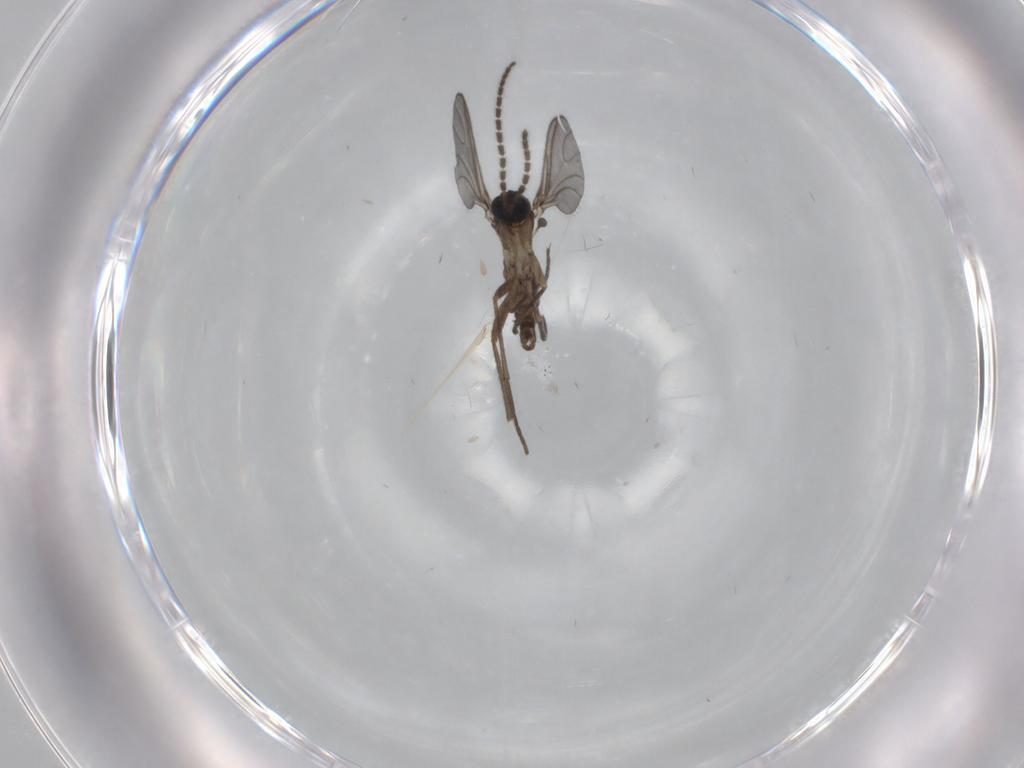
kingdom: Animalia
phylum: Arthropoda
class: Insecta
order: Diptera
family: Sciaridae
